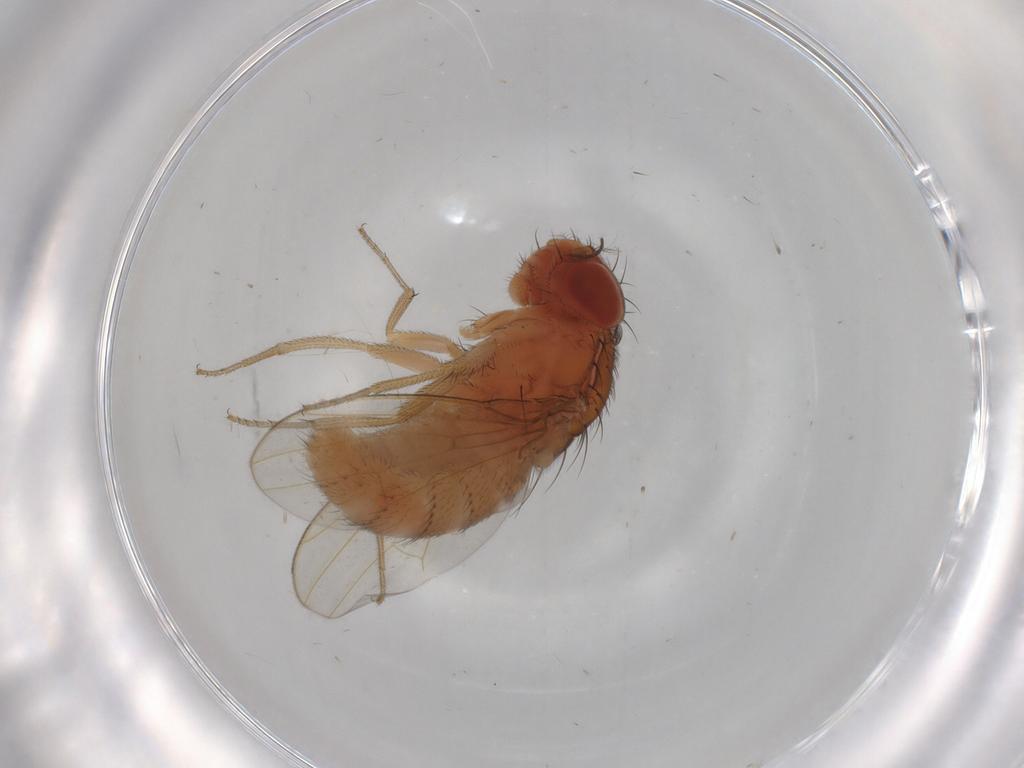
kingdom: Animalia
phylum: Arthropoda
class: Insecta
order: Diptera
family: Drosophilidae
